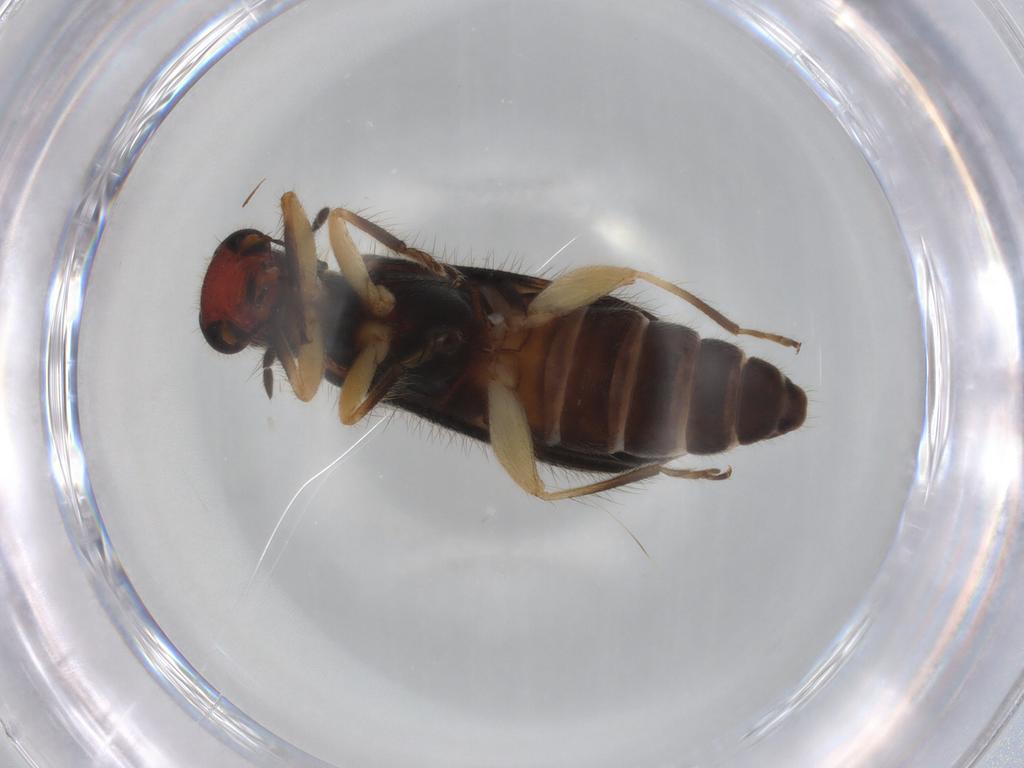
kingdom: Animalia
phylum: Arthropoda
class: Insecta
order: Coleoptera
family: Cleridae
